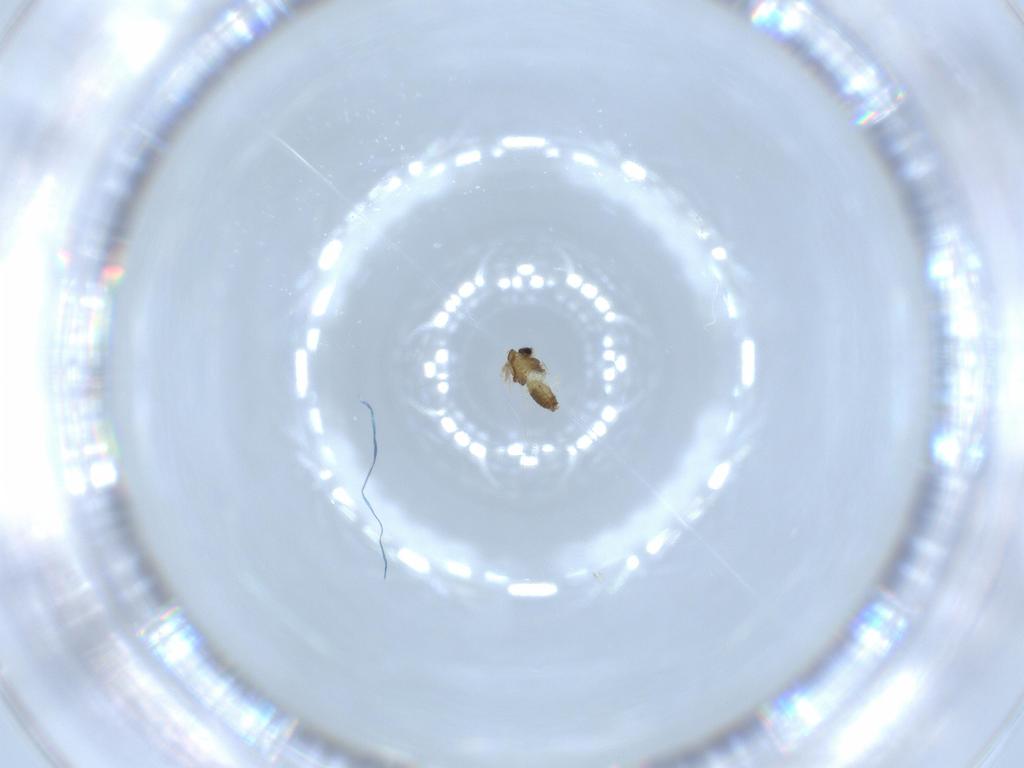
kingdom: Animalia
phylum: Arthropoda
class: Insecta
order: Diptera
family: Chironomidae
